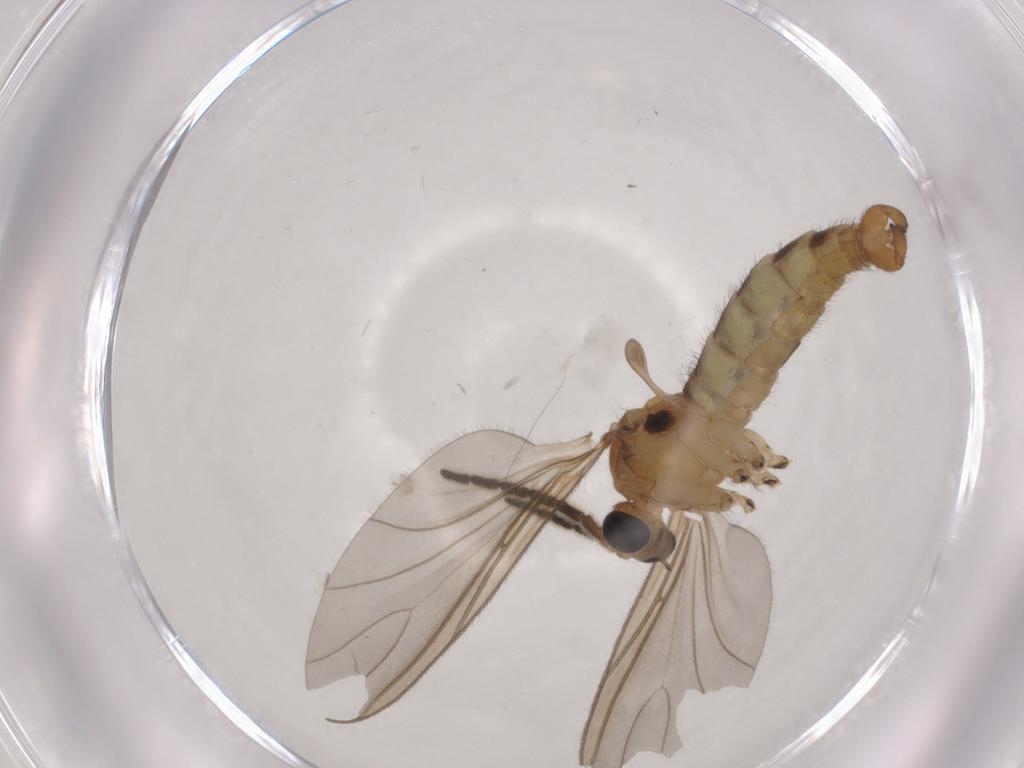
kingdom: Animalia
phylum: Arthropoda
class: Insecta
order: Diptera
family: Sciaridae
